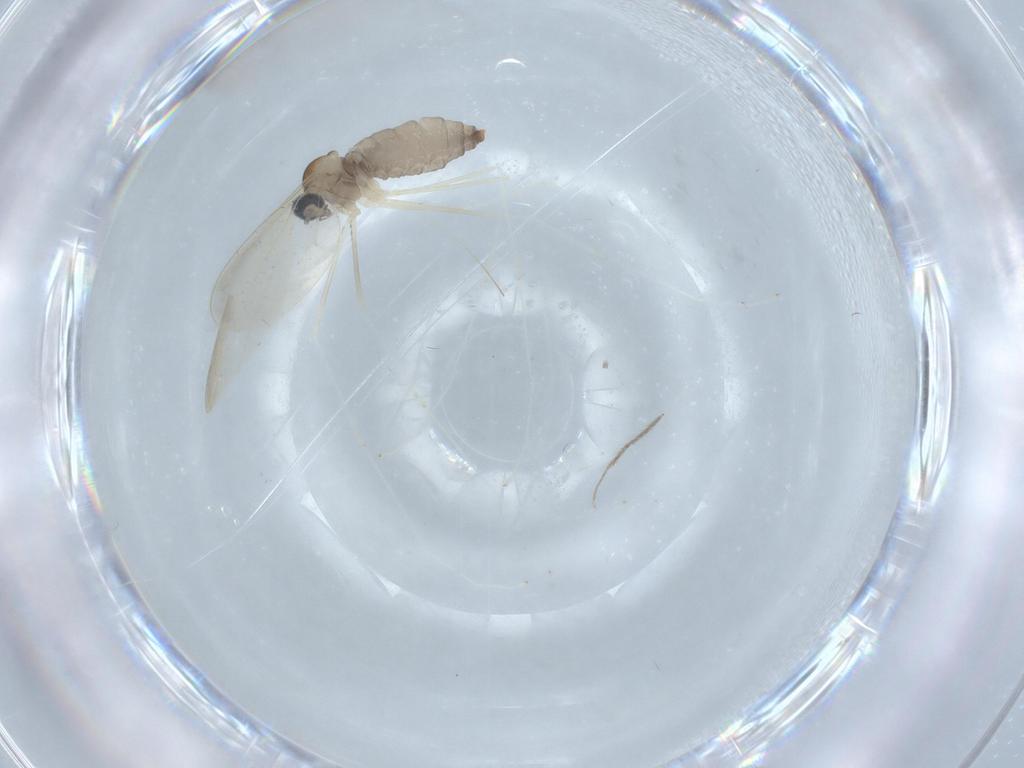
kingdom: Animalia
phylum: Arthropoda
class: Insecta
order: Diptera
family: Cecidomyiidae
